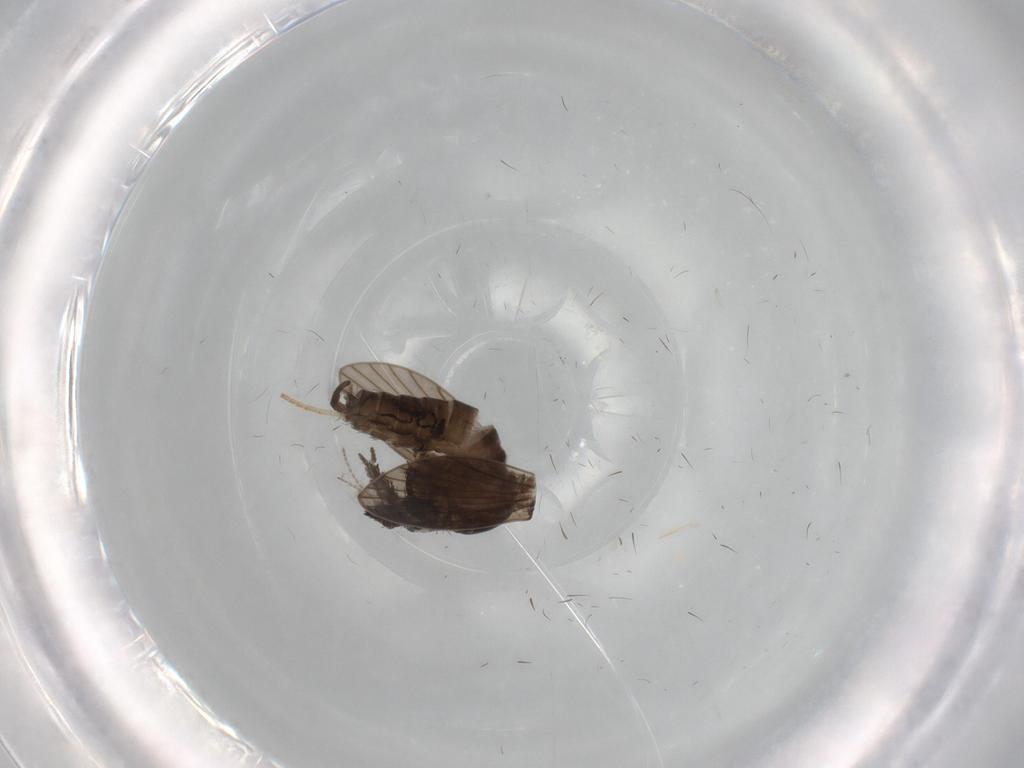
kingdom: Animalia
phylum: Arthropoda
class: Insecta
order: Diptera
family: Psychodidae
